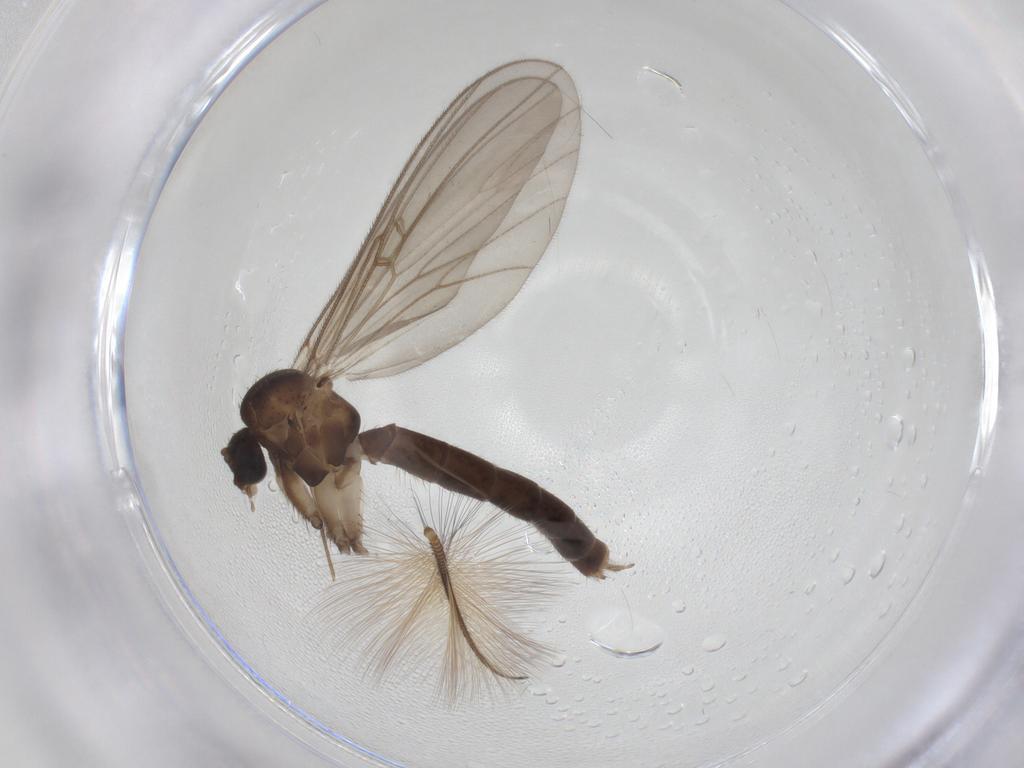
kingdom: Animalia
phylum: Arthropoda
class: Insecta
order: Diptera
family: Mycetophilidae
